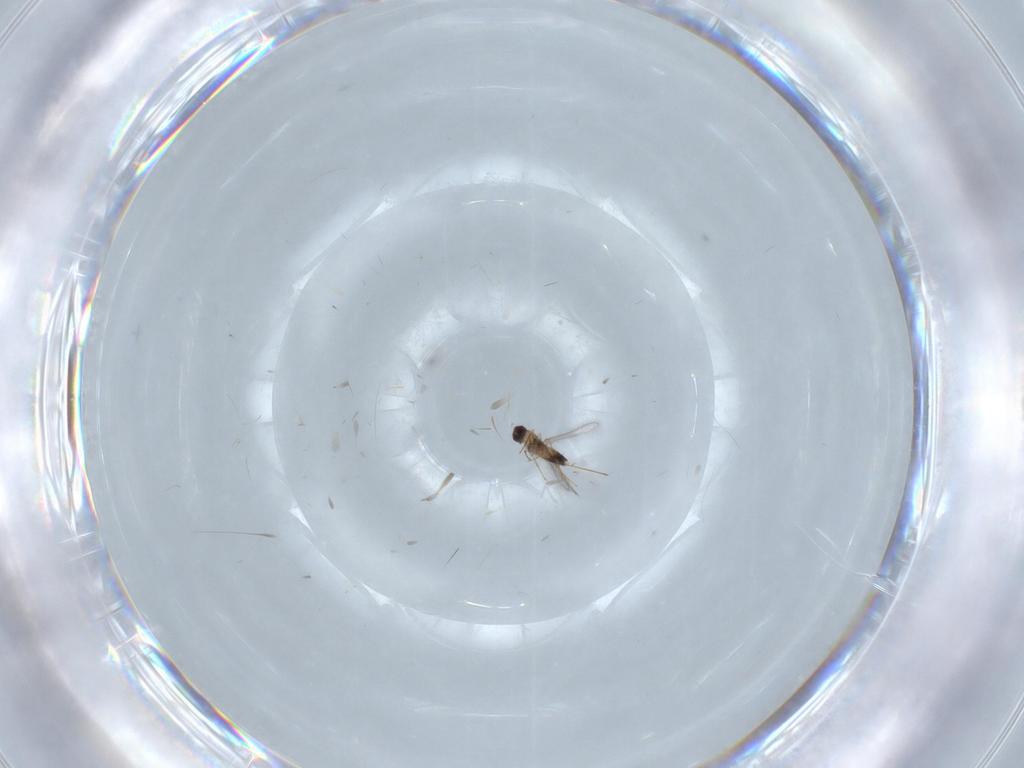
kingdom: Animalia
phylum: Arthropoda
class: Insecta
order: Hymenoptera
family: Mymaridae
